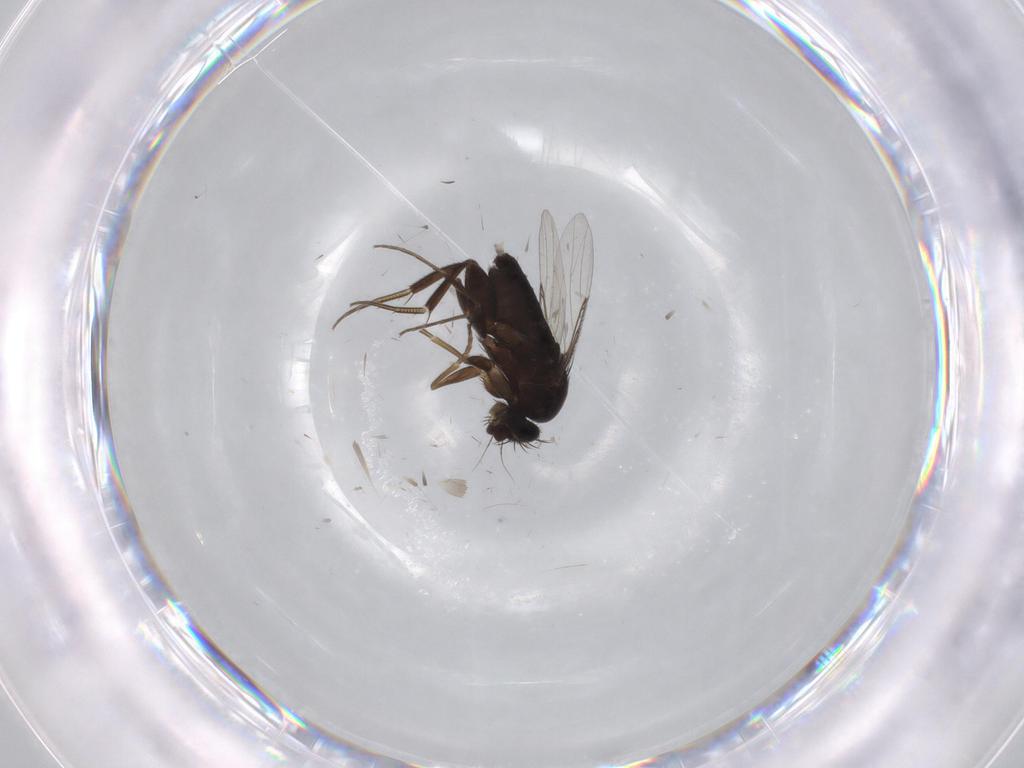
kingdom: Animalia
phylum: Arthropoda
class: Insecta
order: Diptera
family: Phoridae
